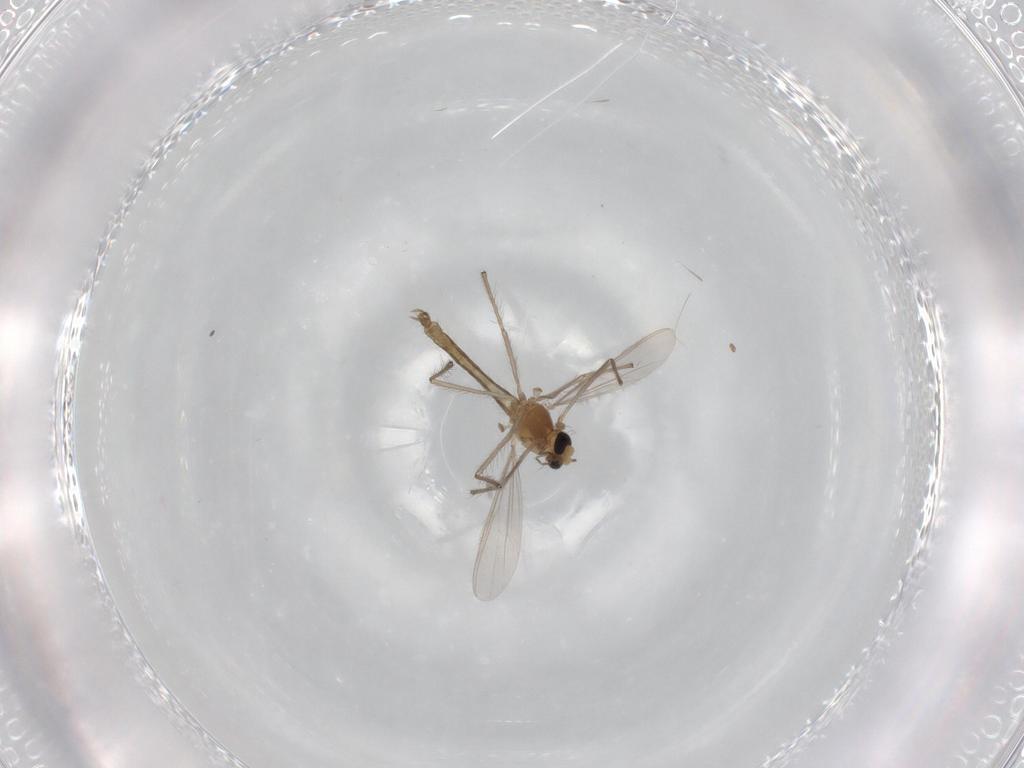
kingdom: Animalia
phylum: Arthropoda
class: Insecta
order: Diptera
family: Chironomidae
